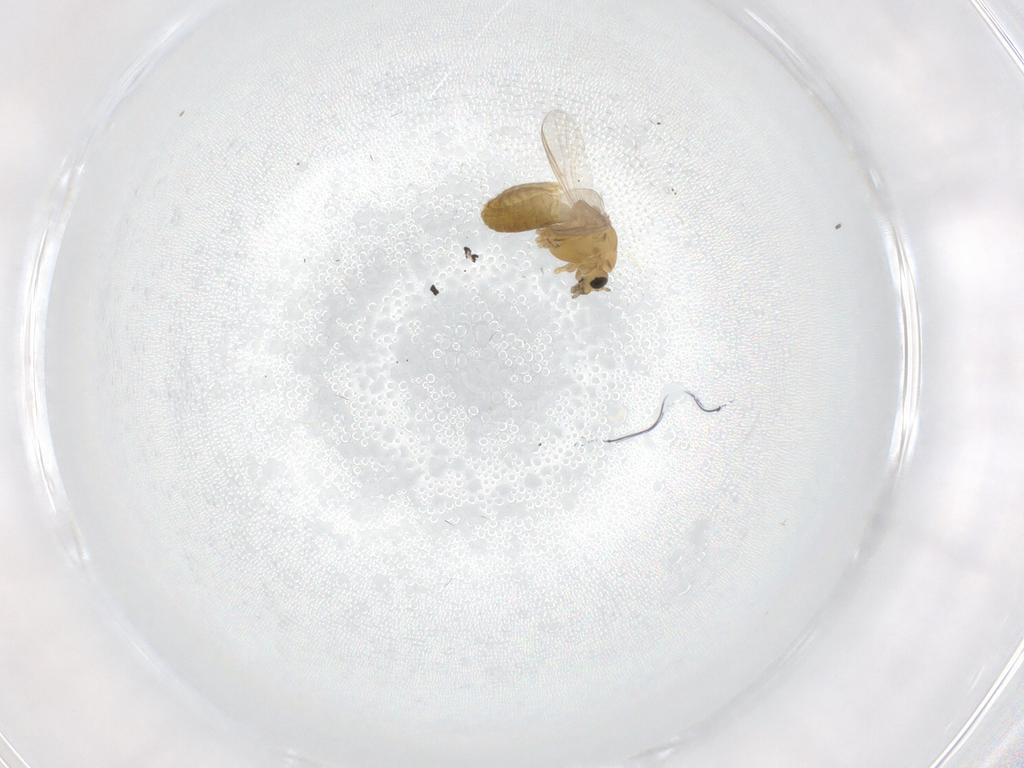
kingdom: Animalia
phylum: Arthropoda
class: Insecta
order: Diptera
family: Chironomidae
